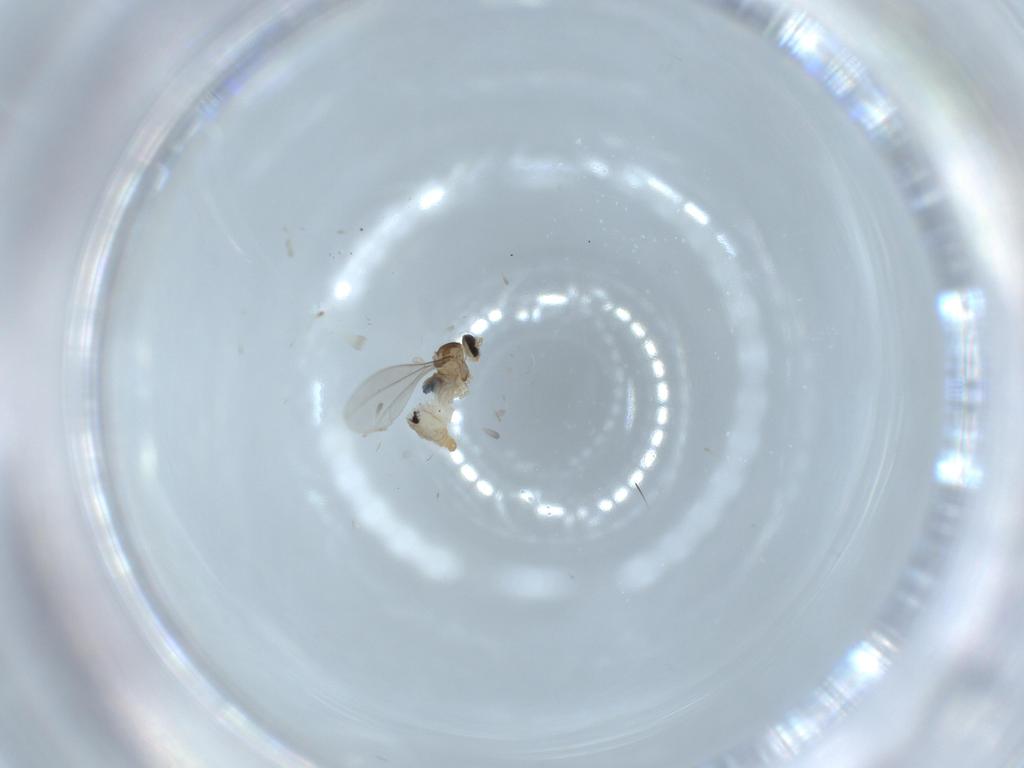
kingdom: Animalia
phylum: Arthropoda
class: Insecta
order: Diptera
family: Cecidomyiidae
